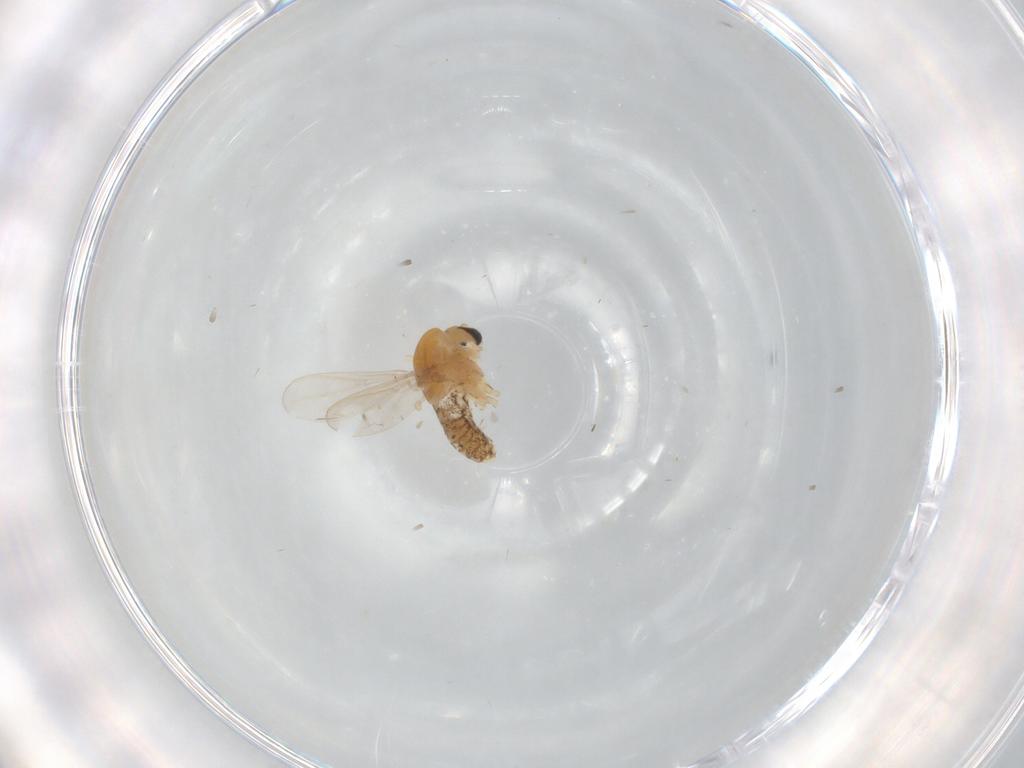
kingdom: Animalia
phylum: Arthropoda
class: Insecta
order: Diptera
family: Chironomidae
